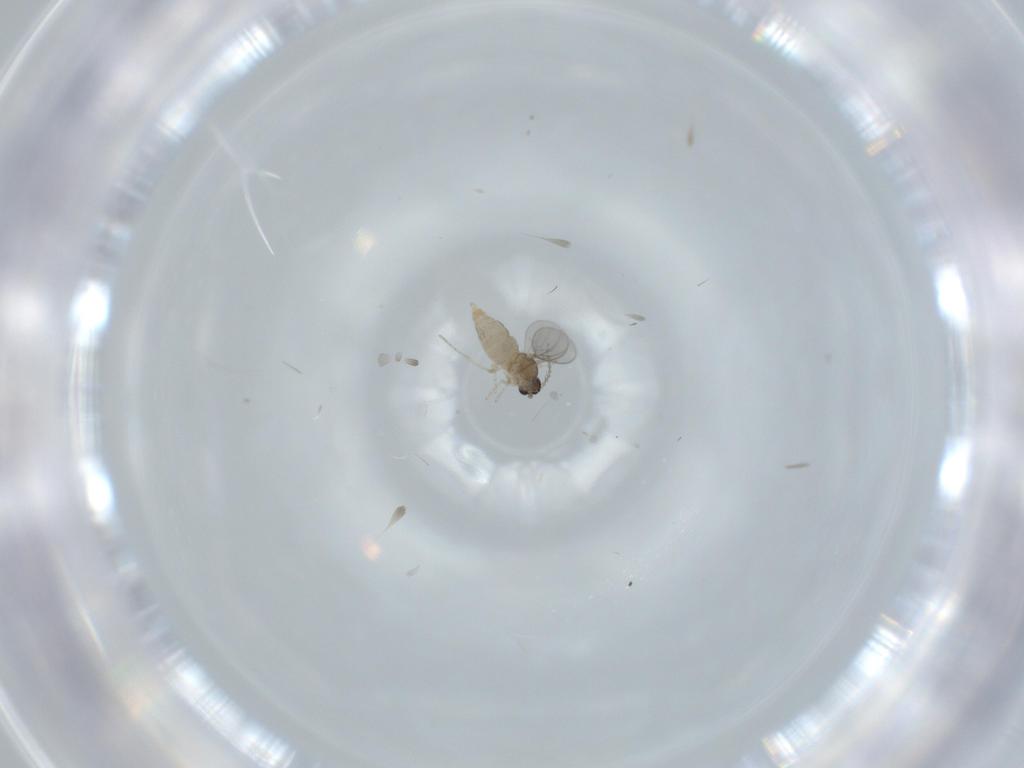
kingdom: Animalia
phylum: Arthropoda
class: Insecta
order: Diptera
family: Cecidomyiidae
